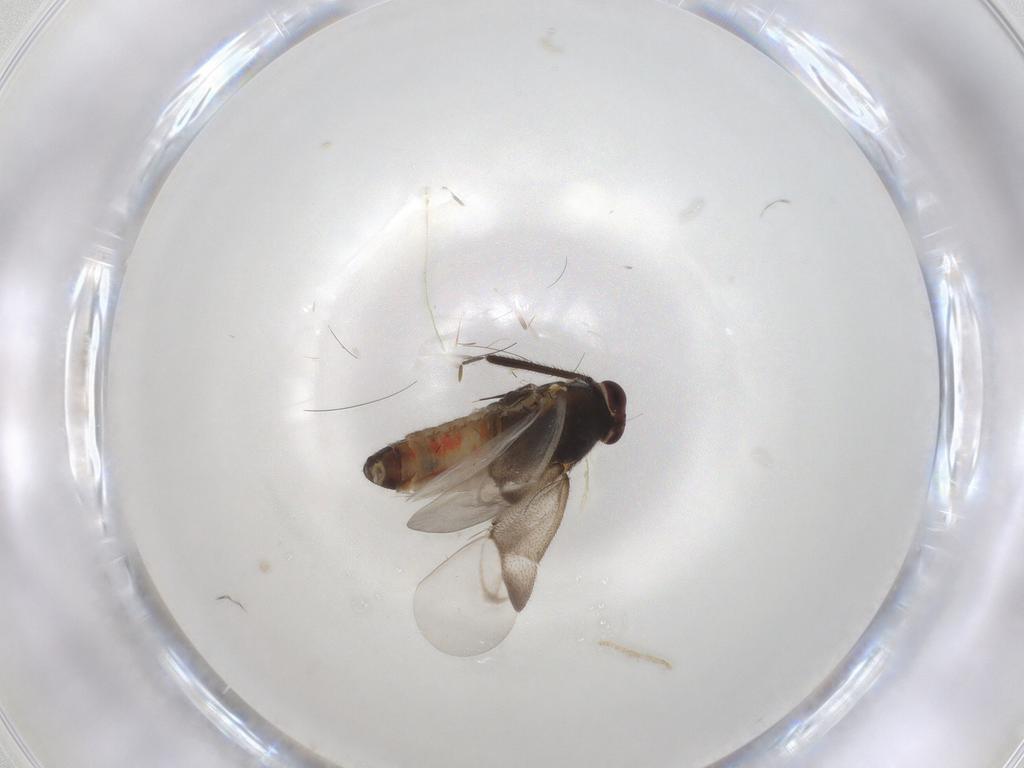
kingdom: Animalia
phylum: Arthropoda
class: Insecta
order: Hemiptera
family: Miridae
